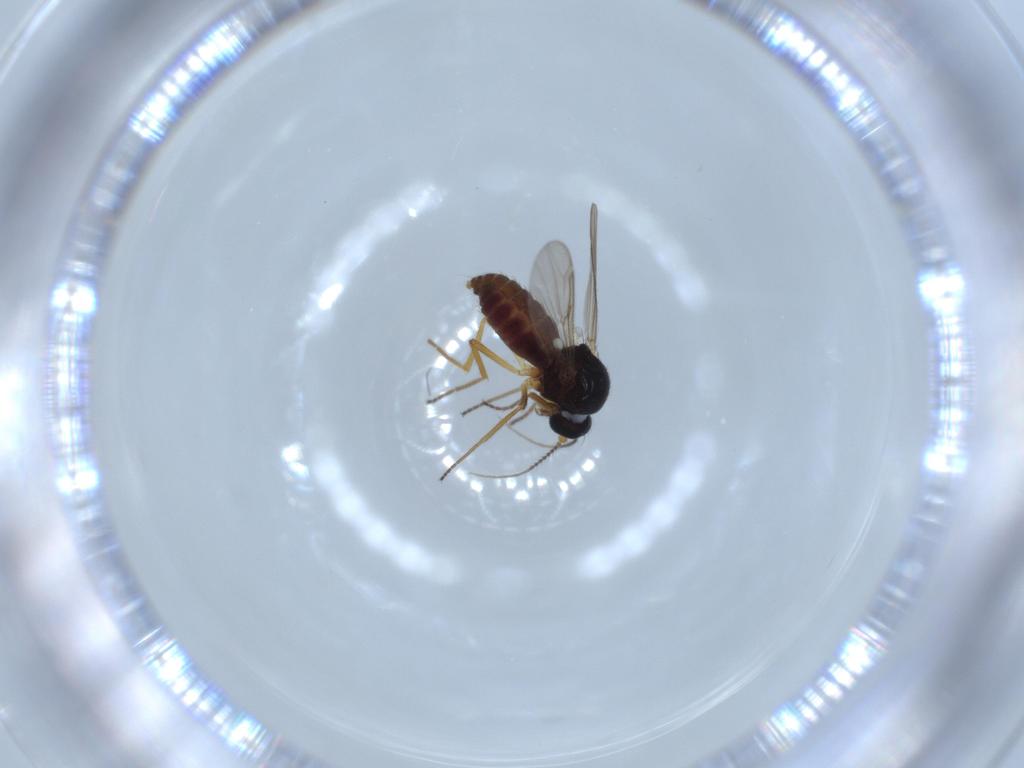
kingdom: Animalia
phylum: Arthropoda
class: Insecta
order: Diptera
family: Ceratopogonidae
